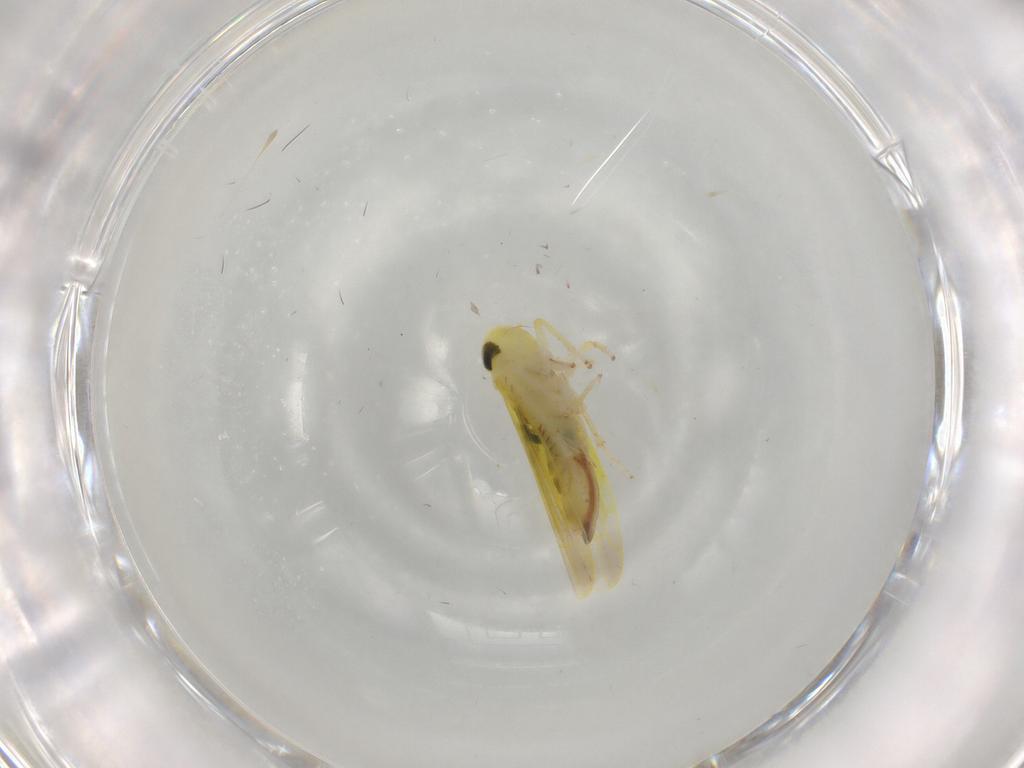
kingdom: Animalia
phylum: Arthropoda
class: Insecta
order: Hemiptera
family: Cicadellidae
